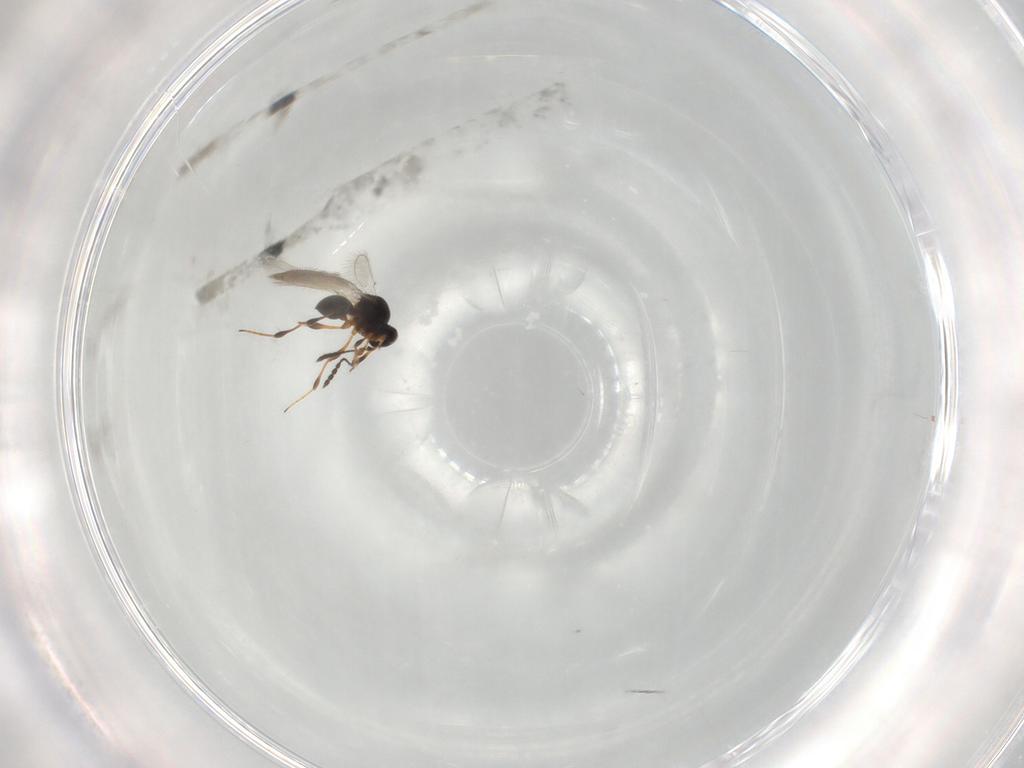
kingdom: Animalia
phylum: Arthropoda
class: Insecta
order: Hymenoptera
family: Platygastridae
